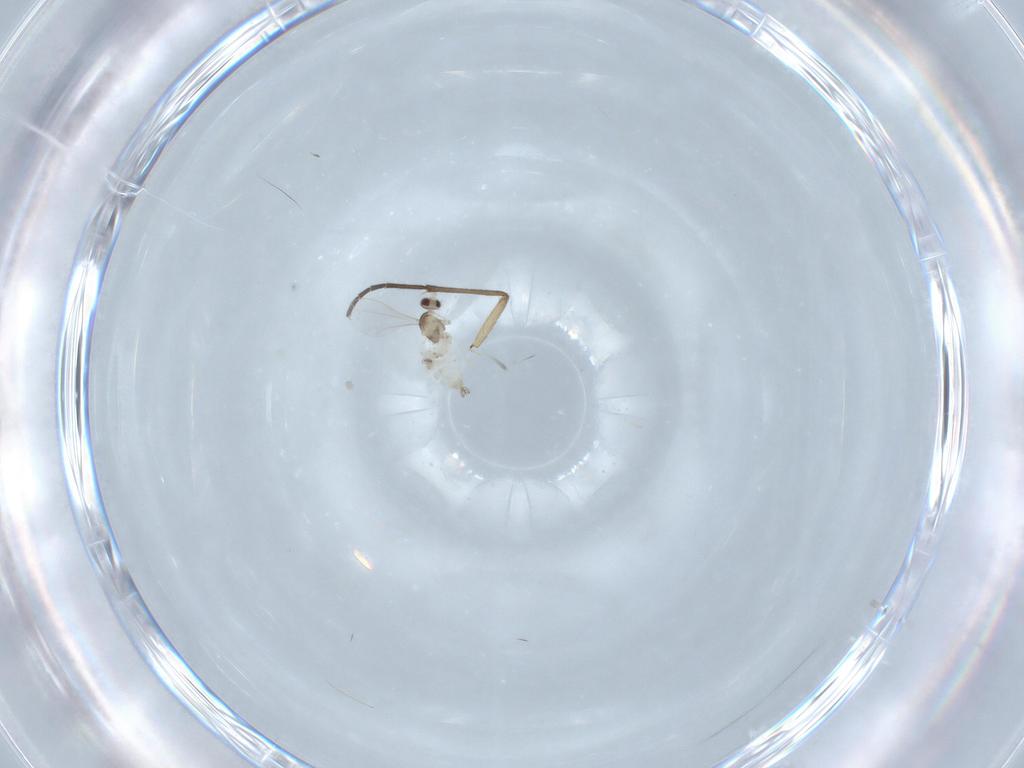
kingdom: Animalia
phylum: Arthropoda
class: Insecta
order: Diptera
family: Cecidomyiidae
